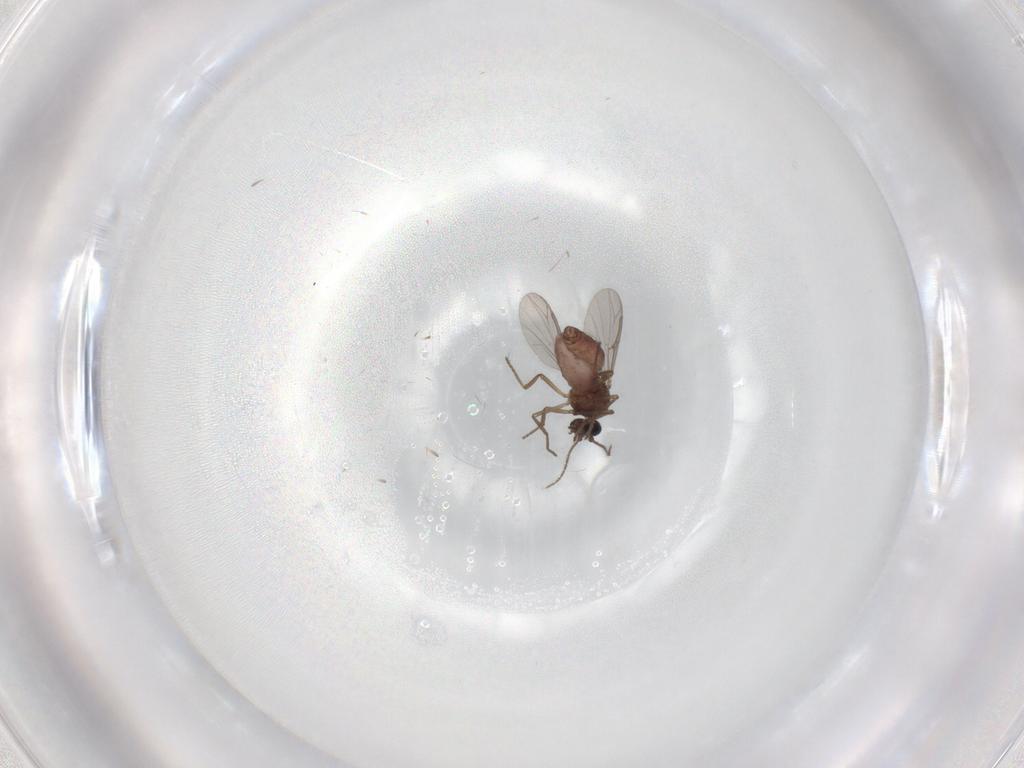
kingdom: Animalia
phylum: Arthropoda
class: Insecta
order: Diptera
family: Ceratopogonidae
